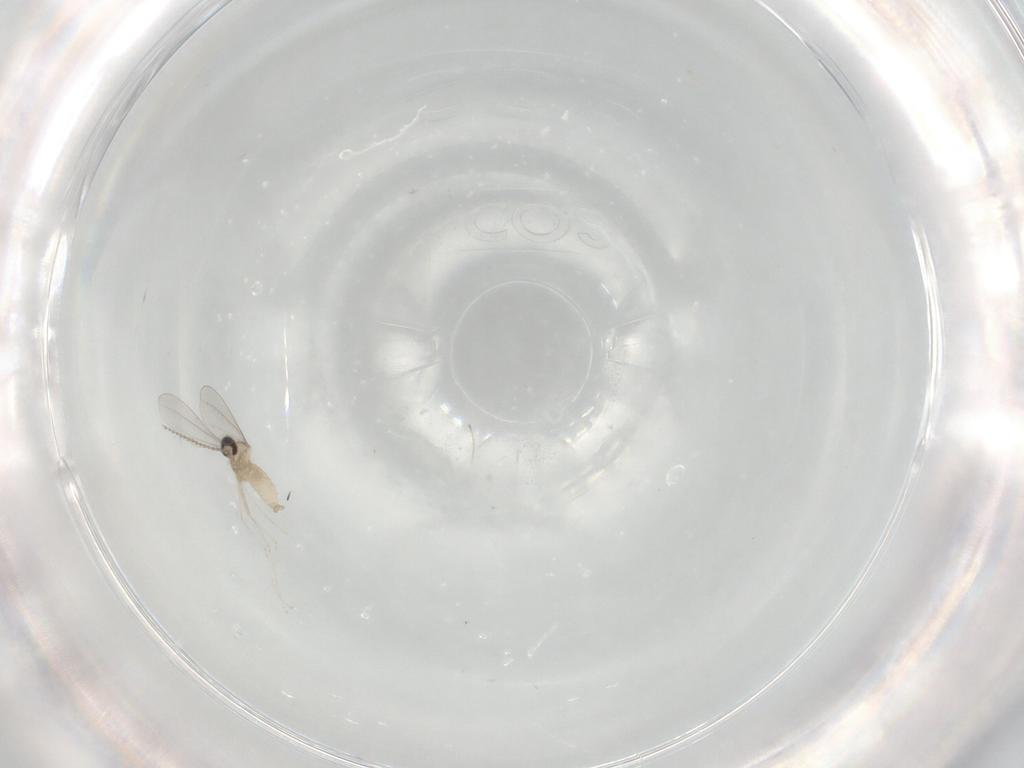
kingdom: Animalia
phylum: Arthropoda
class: Insecta
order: Diptera
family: Cecidomyiidae
